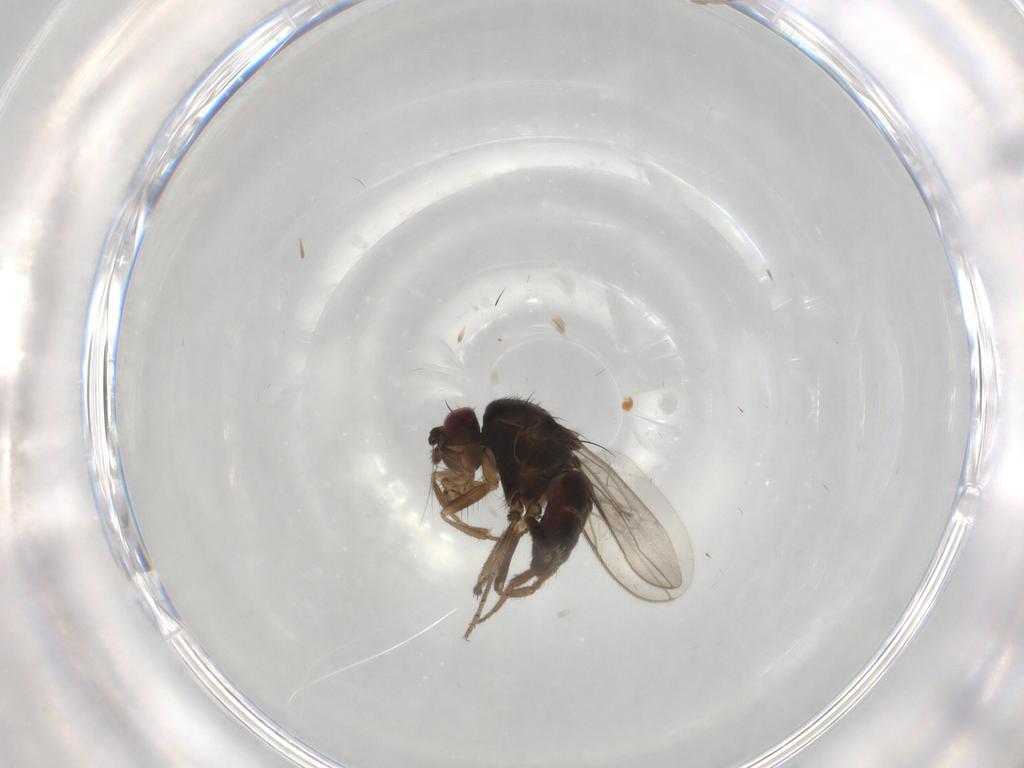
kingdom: Animalia
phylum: Arthropoda
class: Insecta
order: Diptera
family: Sphaeroceridae
